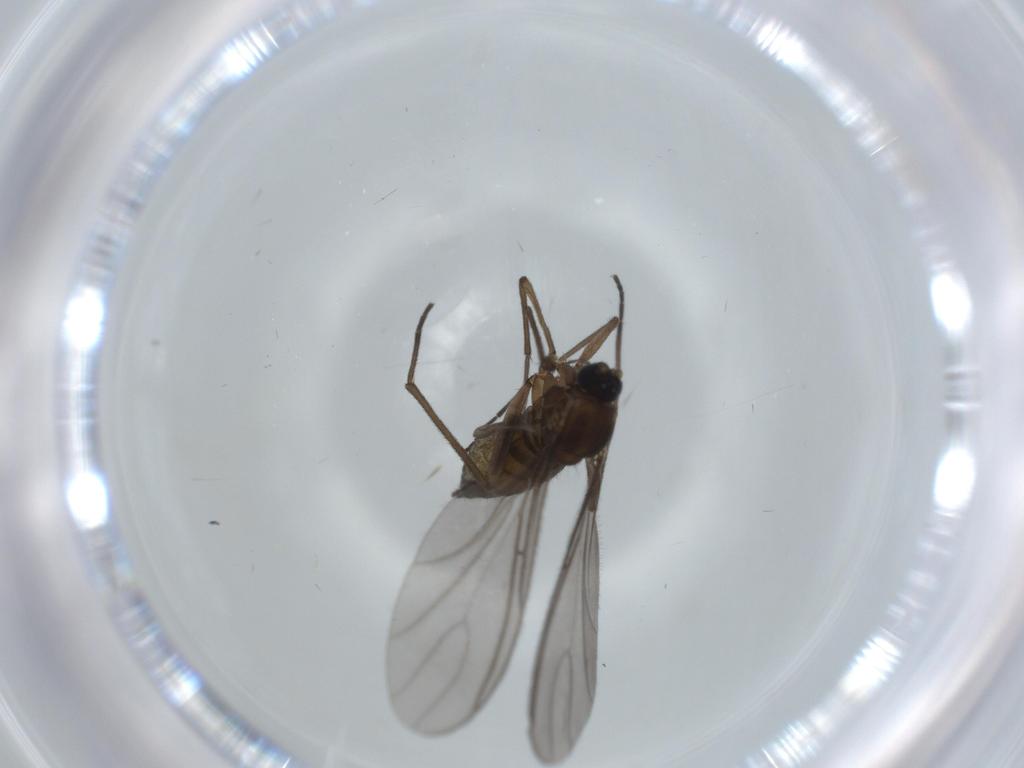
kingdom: Animalia
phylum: Arthropoda
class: Insecta
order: Diptera
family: Sciaridae
